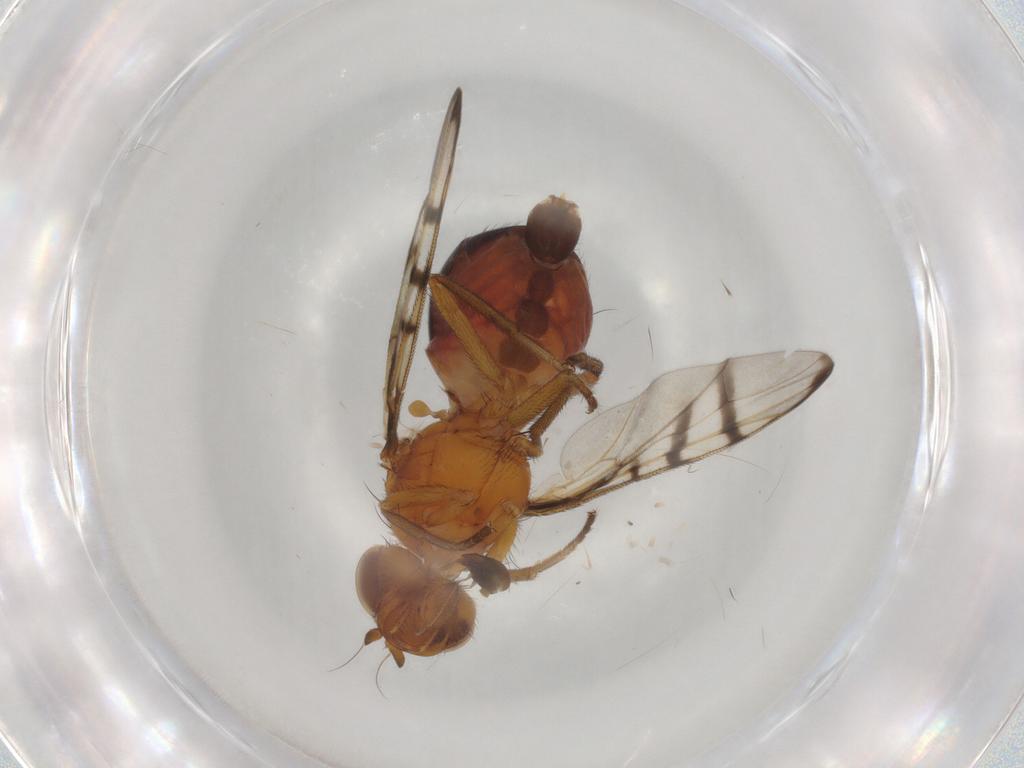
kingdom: Animalia
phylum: Arthropoda
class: Insecta
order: Diptera
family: Platystomatidae
